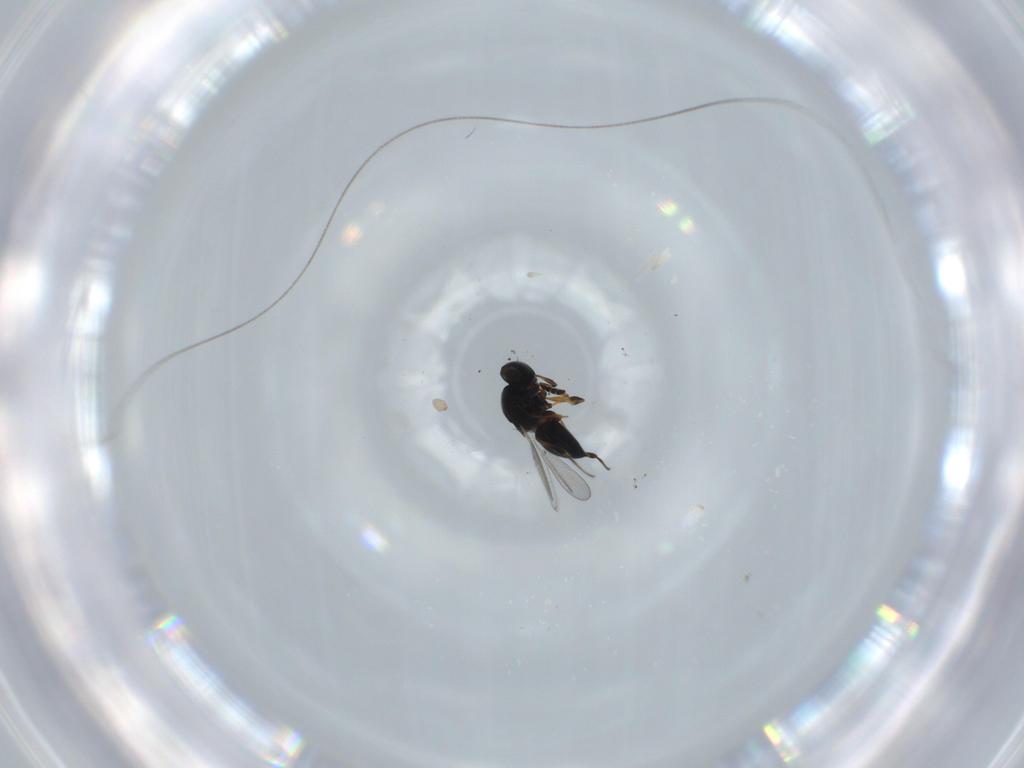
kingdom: Animalia
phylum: Arthropoda
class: Insecta
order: Hymenoptera
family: Platygastridae
